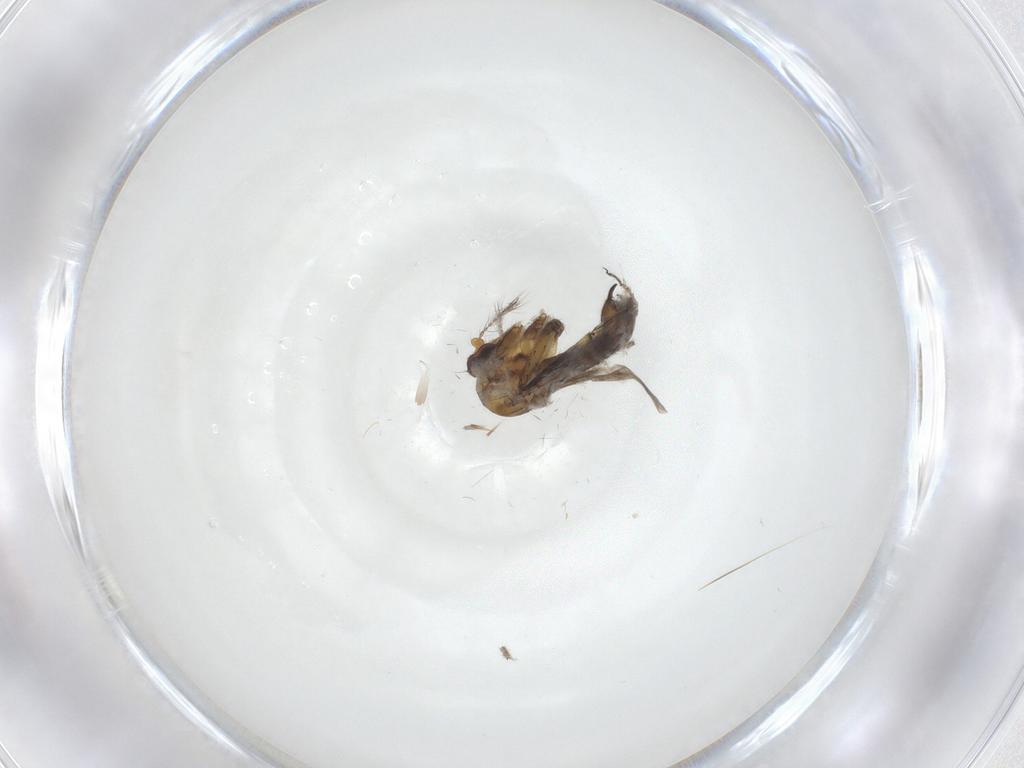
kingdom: Animalia
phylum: Arthropoda
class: Insecta
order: Diptera
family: Ceratopogonidae
